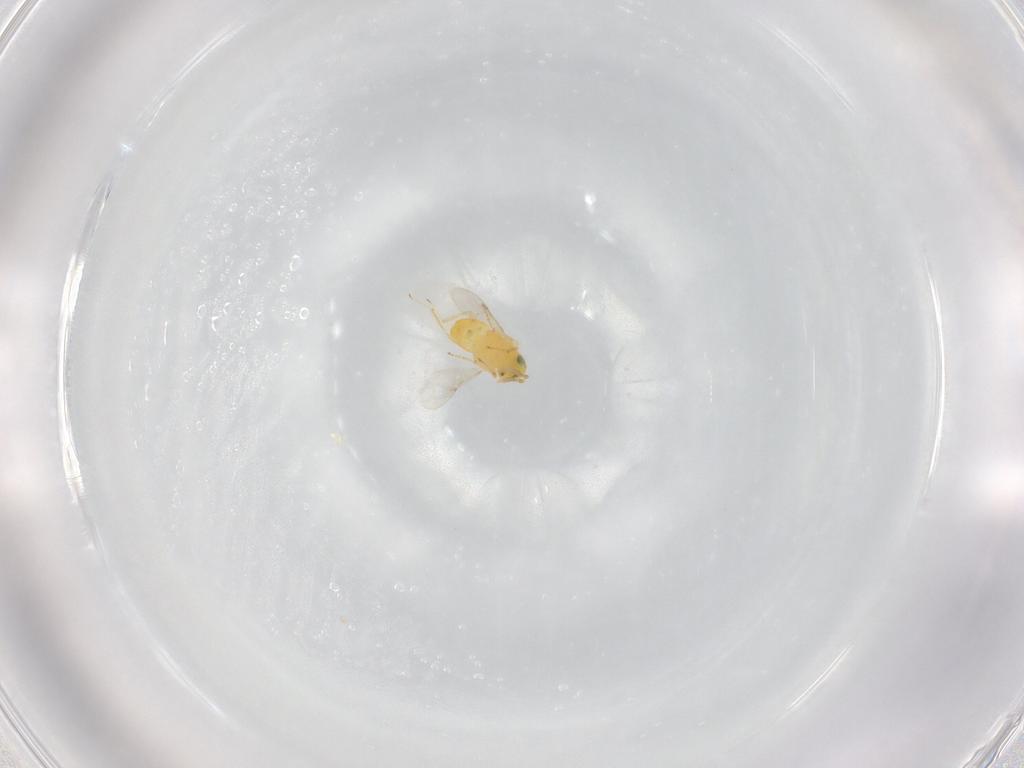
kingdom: Animalia
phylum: Arthropoda
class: Insecta
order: Hymenoptera
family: Encyrtidae
